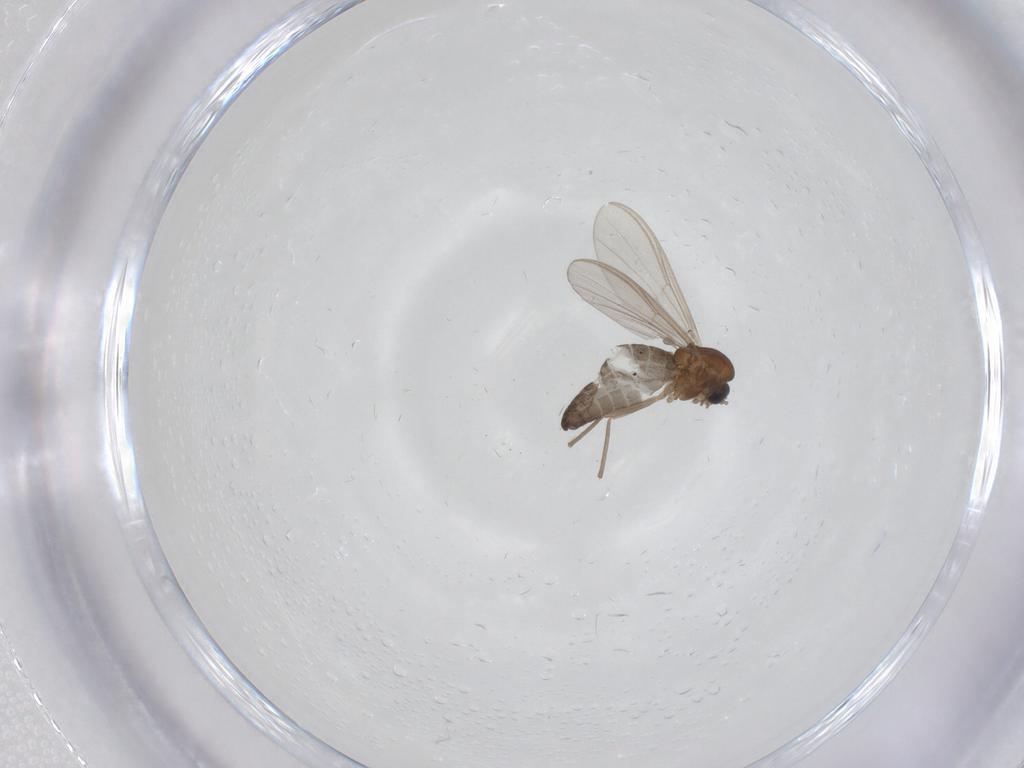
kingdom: Animalia
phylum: Arthropoda
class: Insecta
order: Diptera
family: Chironomidae
